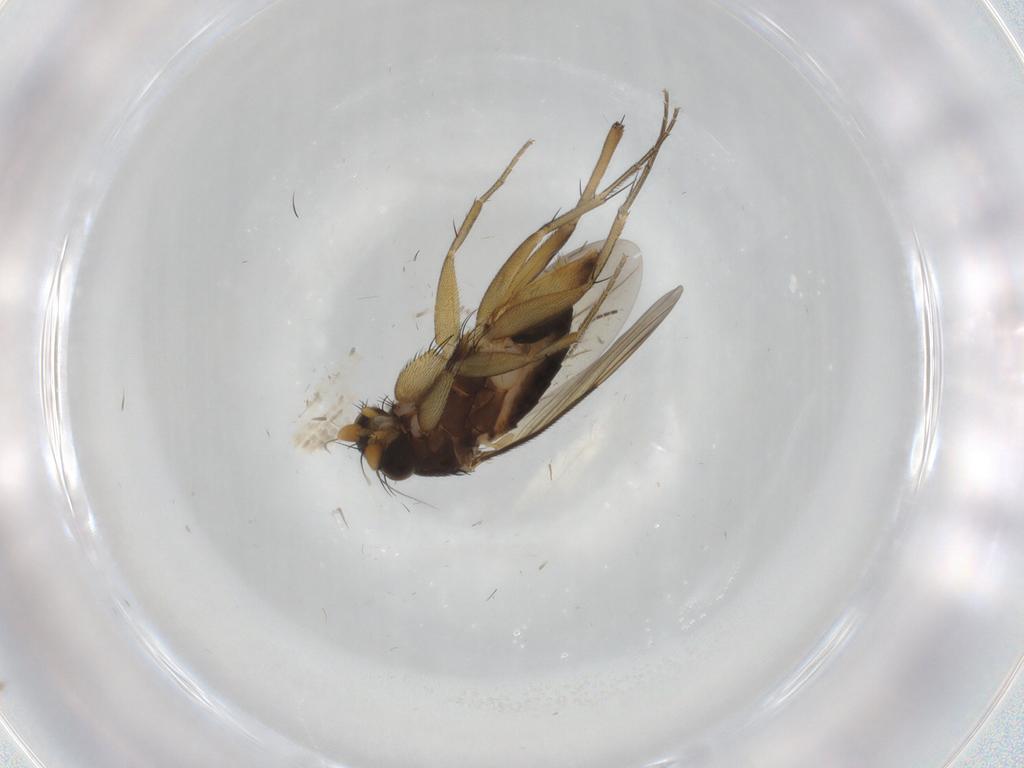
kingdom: Animalia
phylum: Arthropoda
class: Insecta
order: Diptera
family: Phoridae
